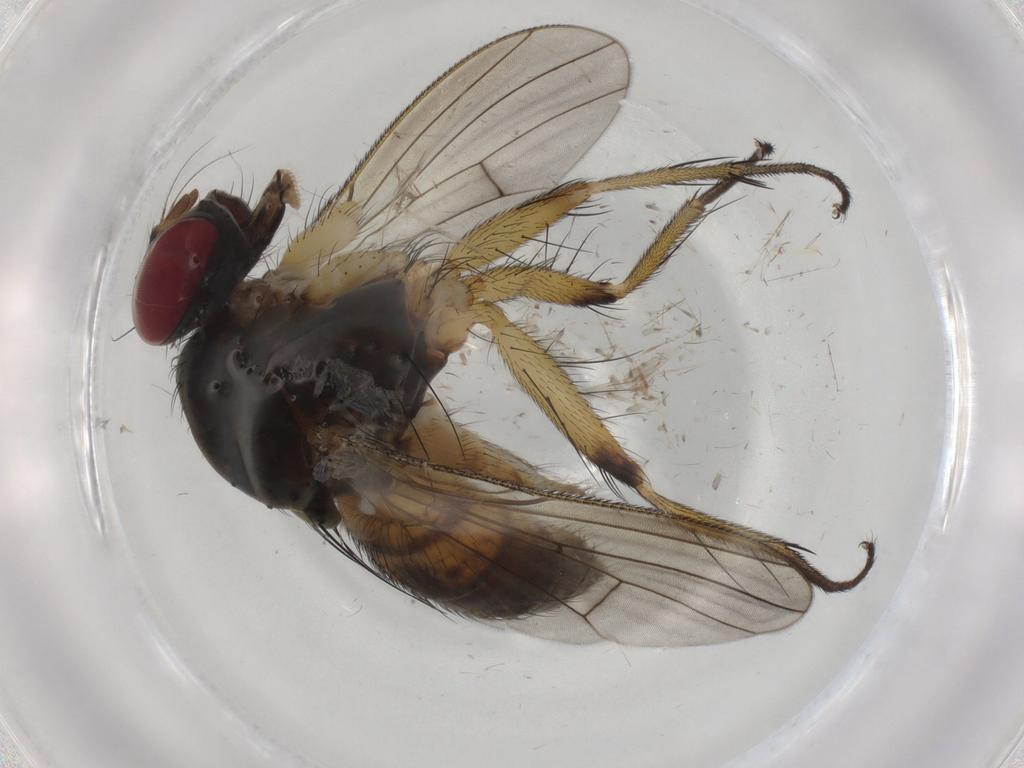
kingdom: Animalia
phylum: Arthropoda
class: Insecta
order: Diptera
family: Muscidae
